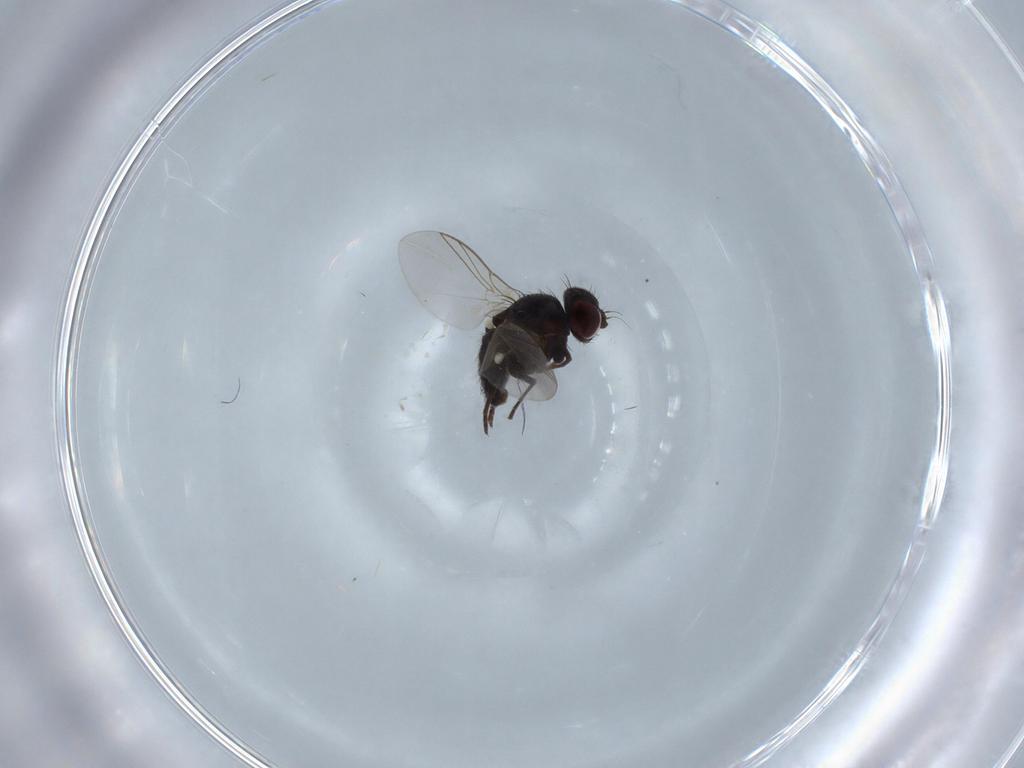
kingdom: Animalia
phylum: Arthropoda
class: Insecta
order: Diptera
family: Chloropidae
